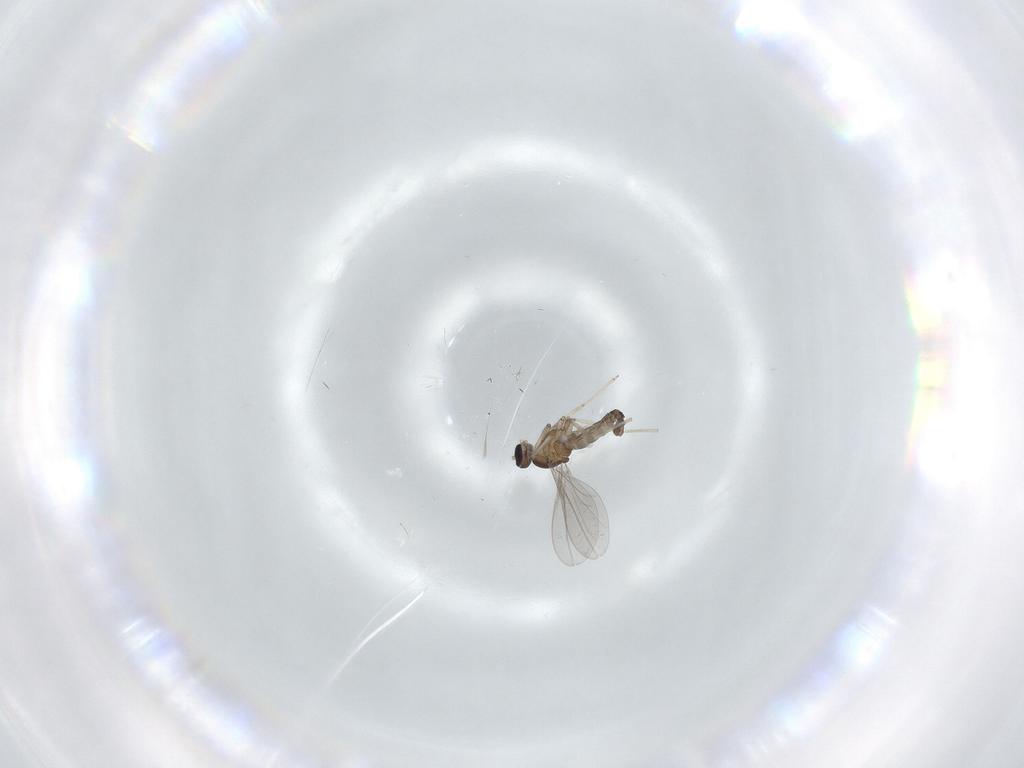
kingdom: Animalia
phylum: Arthropoda
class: Insecta
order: Diptera
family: Cecidomyiidae
